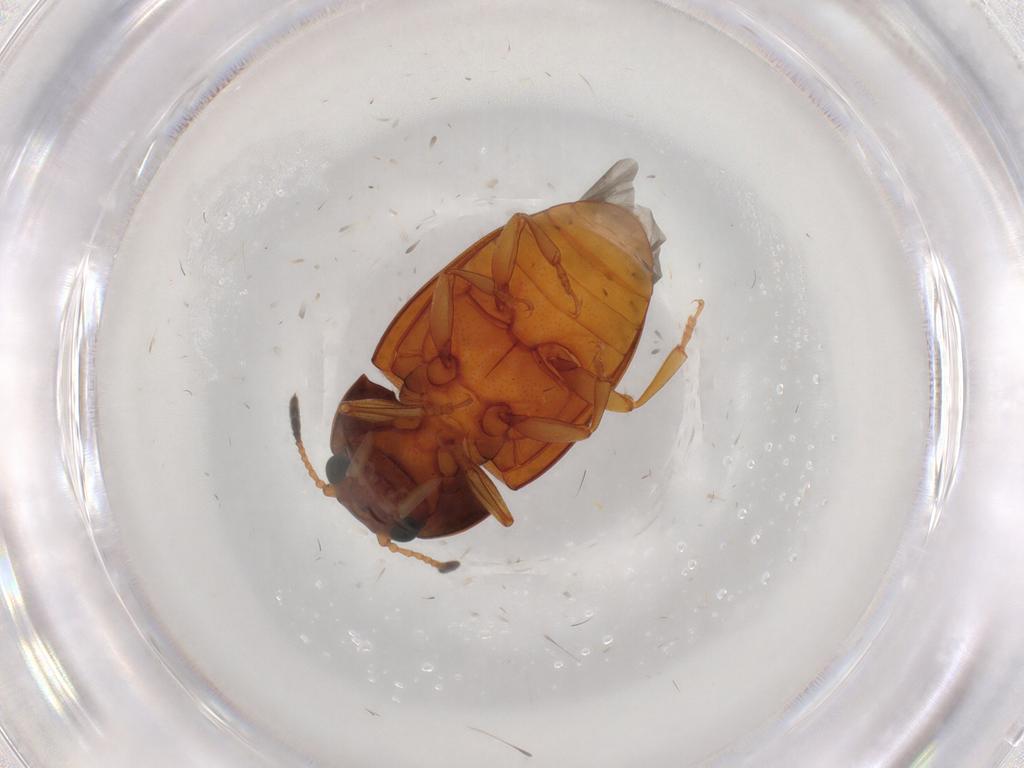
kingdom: Animalia
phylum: Arthropoda
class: Insecta
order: Coleoptera
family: Erotylidae
